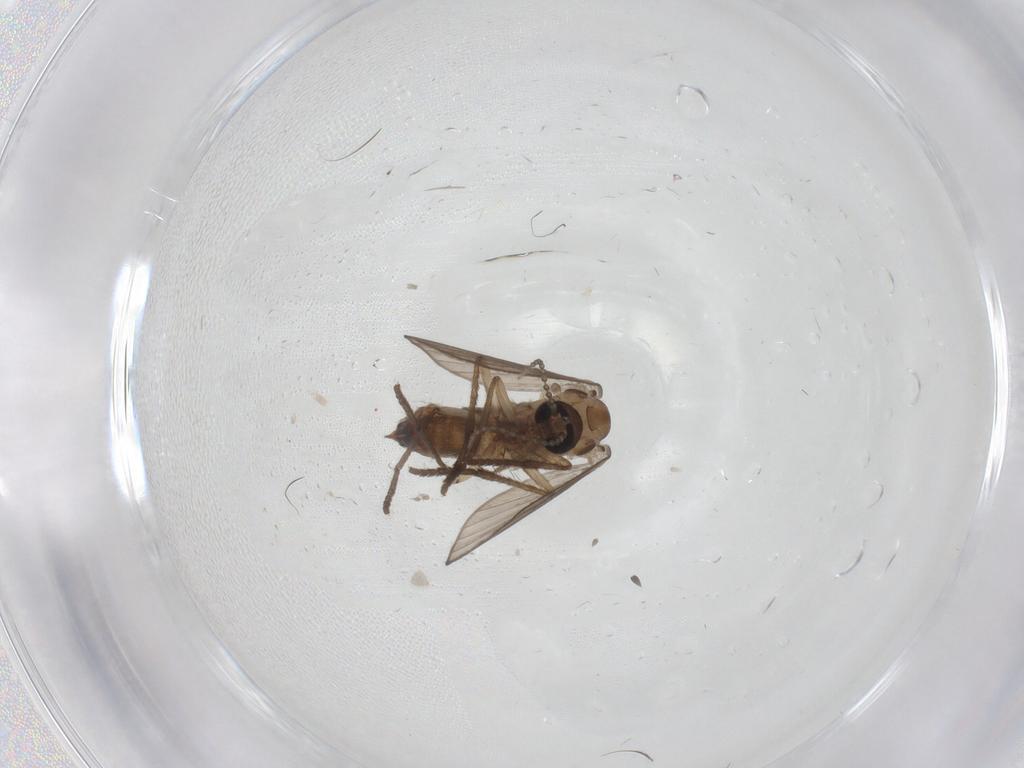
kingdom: Animalia
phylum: Arthropoda
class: Insecta
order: Diptera
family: Psychodidae
